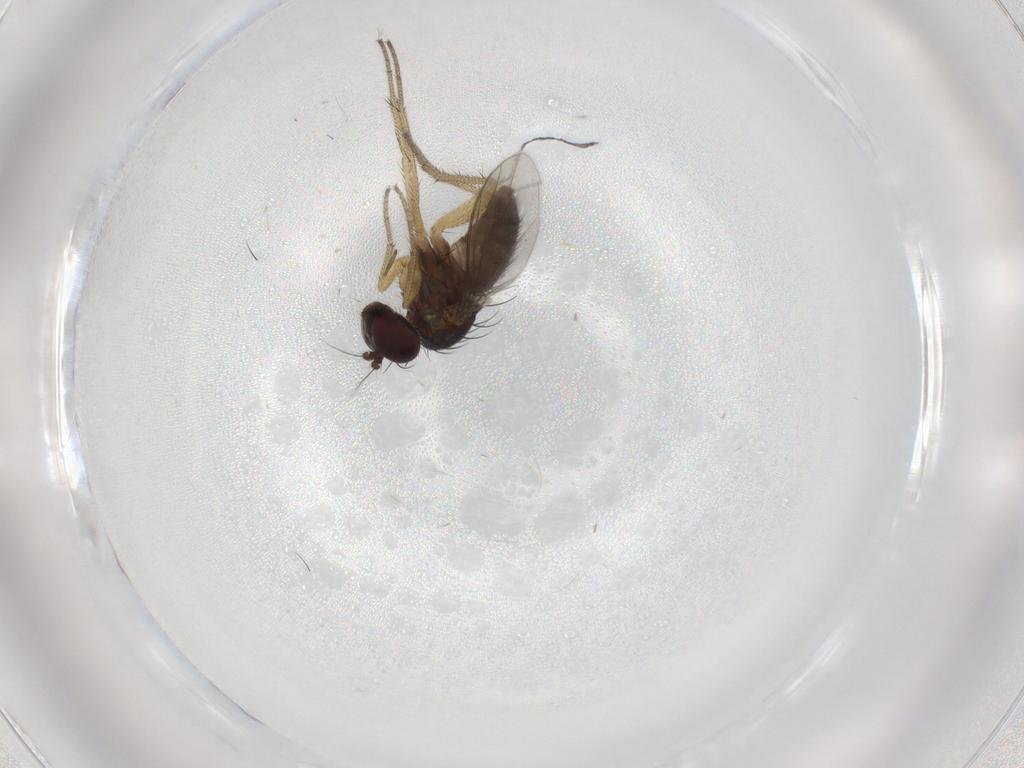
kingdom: Animalia
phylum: Arthropoda
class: Insecta
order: Diptera
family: Dolichopodidae
